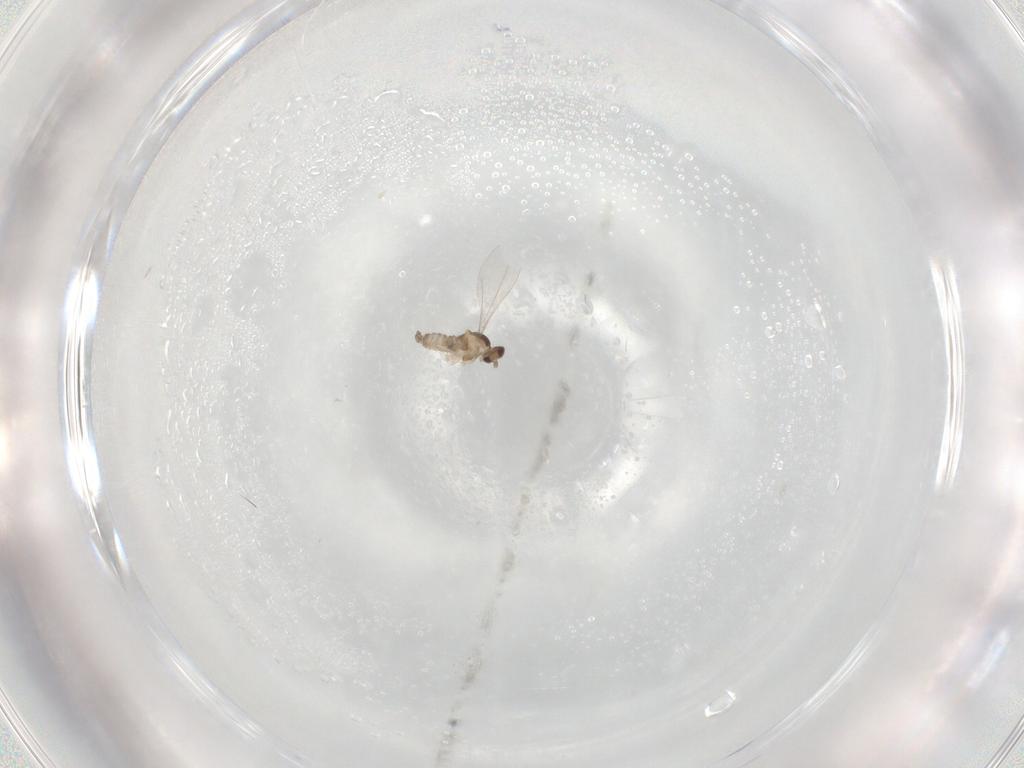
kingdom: Animalia
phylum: Arthropoda
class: Insecta
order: Diptera
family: Cecidomyiidae
